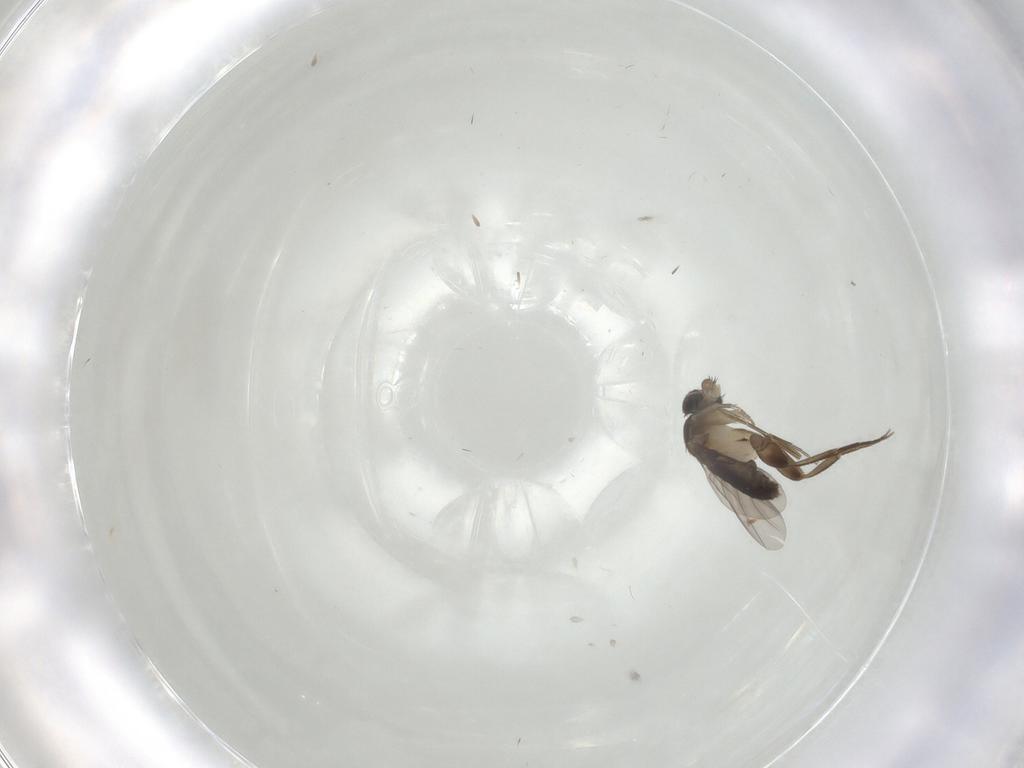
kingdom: Animalia
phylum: Arthropoda
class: Insecta
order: Diptera
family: Phoridae
